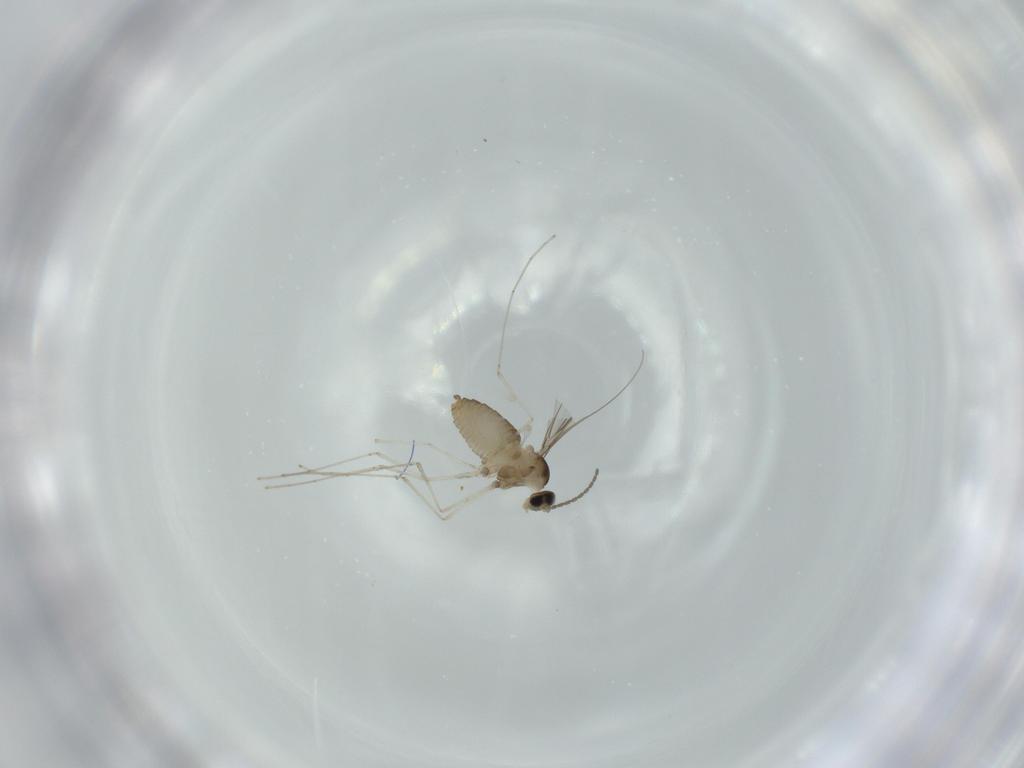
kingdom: Animalia
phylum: Arthropoda
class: Insecta
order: Diptera
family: Cecidomyiidae
